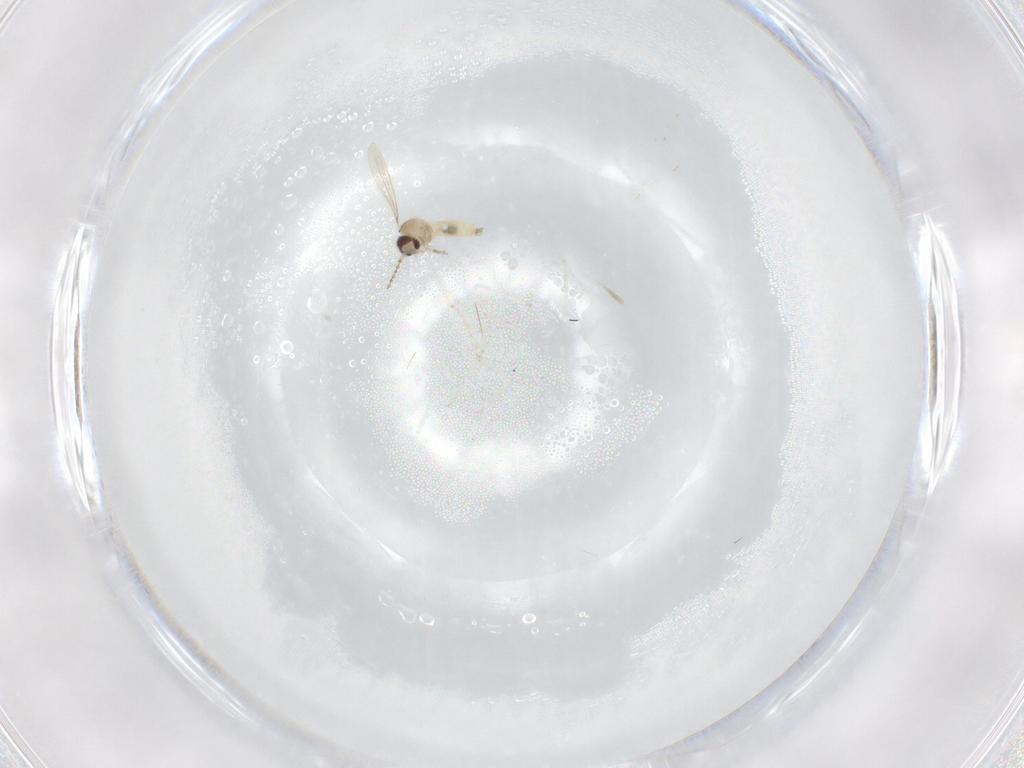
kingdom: Animalia
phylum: Arthropoda
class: Insecta
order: Diptera
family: Cecidomyiidae
